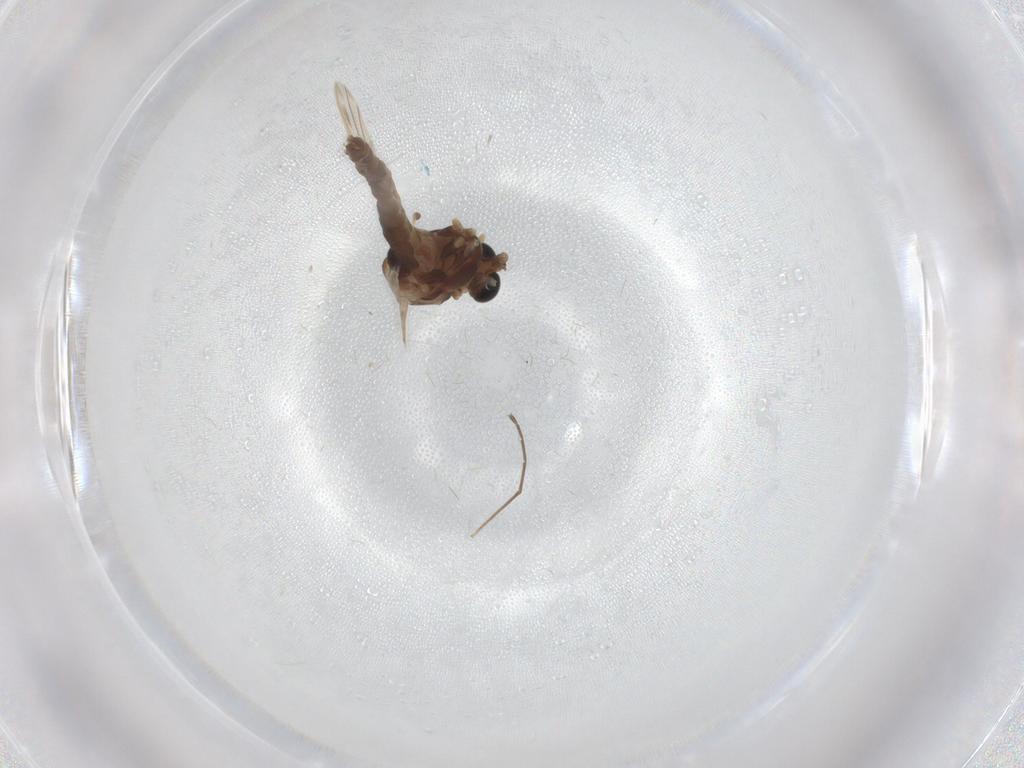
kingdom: Animalia
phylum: Arthropoda
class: Insecta
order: Diptera
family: Chironomidae
